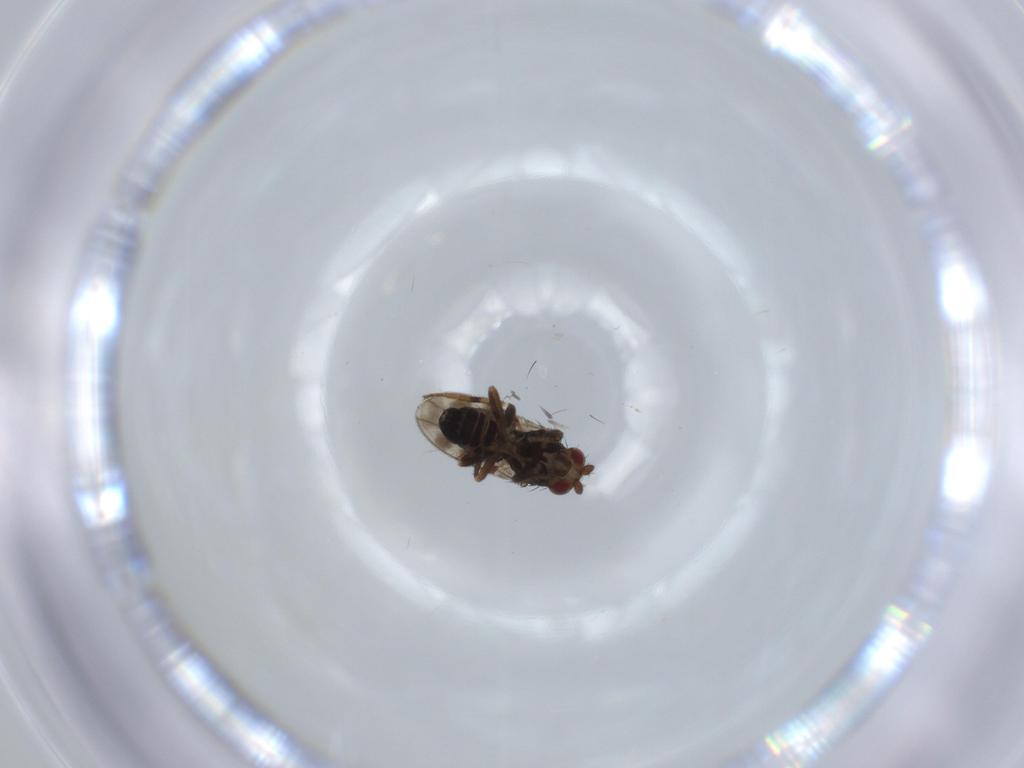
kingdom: Animalia
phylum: Arthropoda
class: Insecta
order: Diptera
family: Sphaeroceridae
